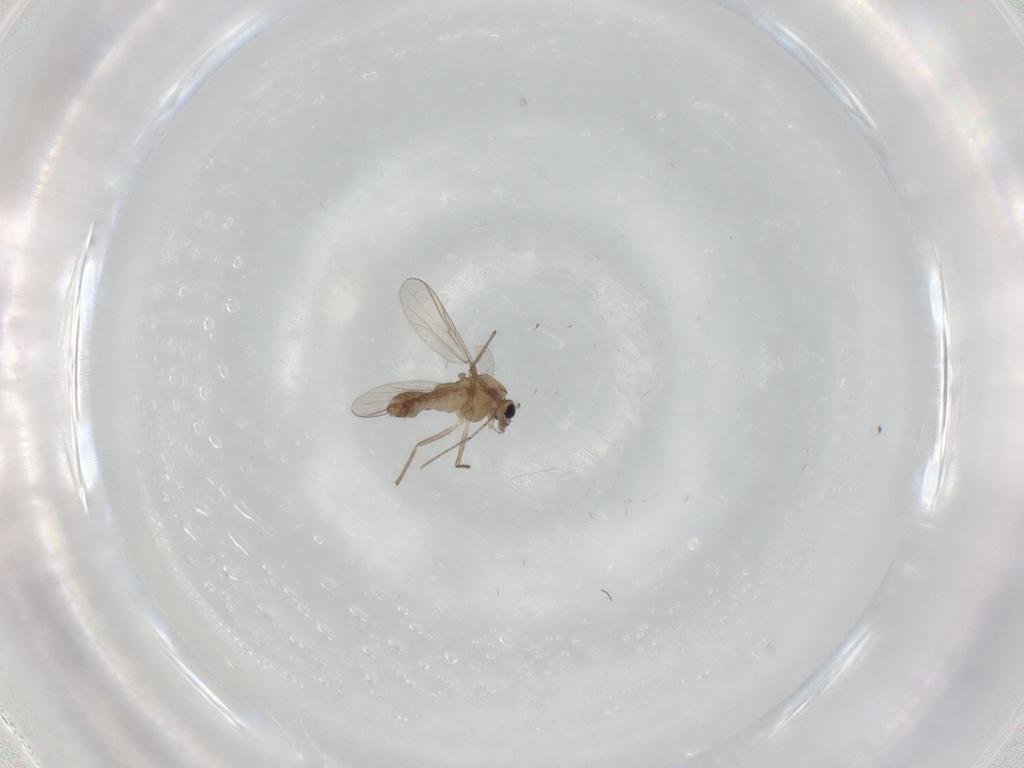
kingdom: Animalia
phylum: Arthropoda
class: Insecta
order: Diptera
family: Chironomidae
